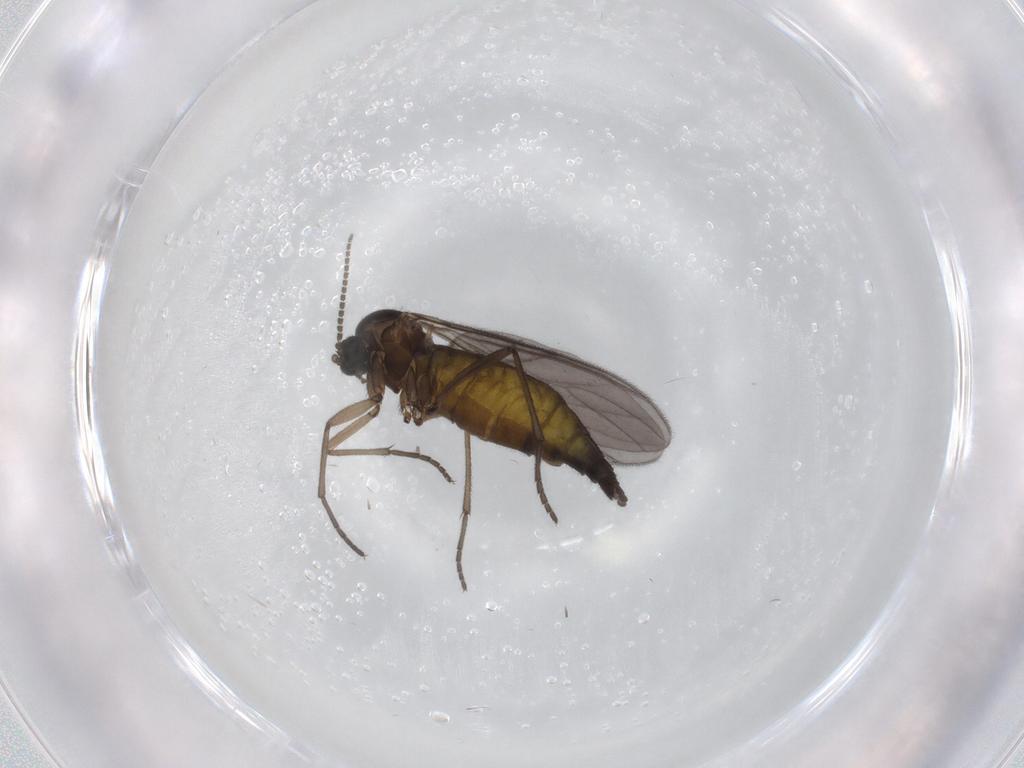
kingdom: Animalia
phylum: Arthropoda
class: Insecta
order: Diptera
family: Sciaridae
